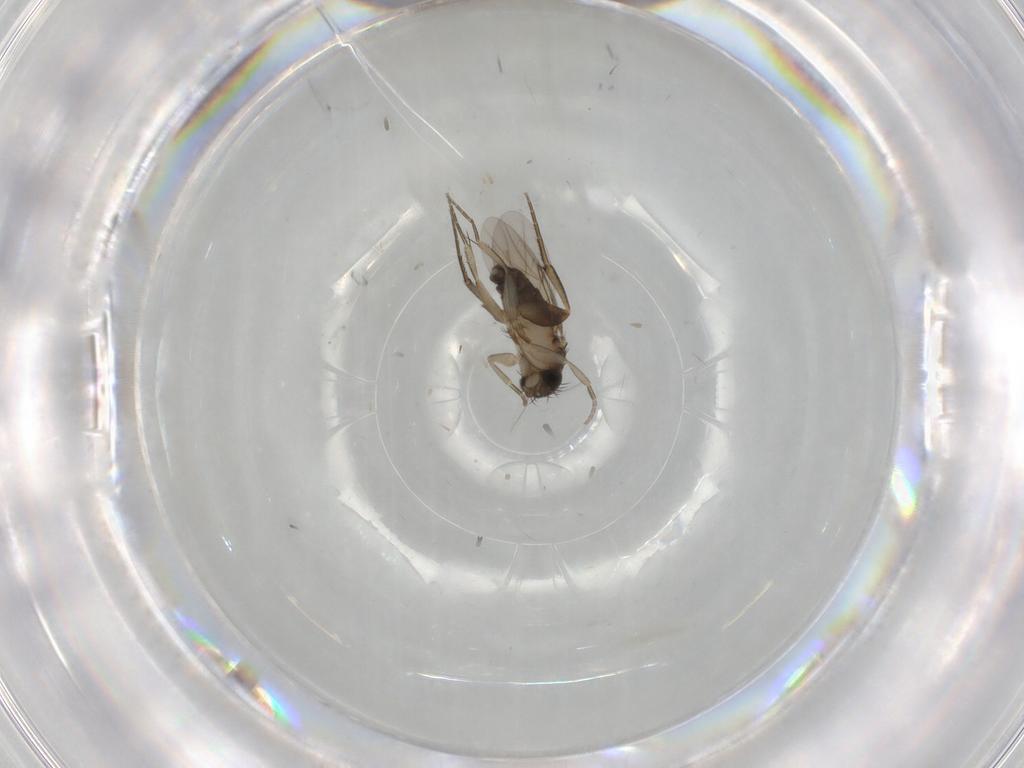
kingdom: Animalia
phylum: Arthropoda
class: Insecta
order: Diptera
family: Phoridae
